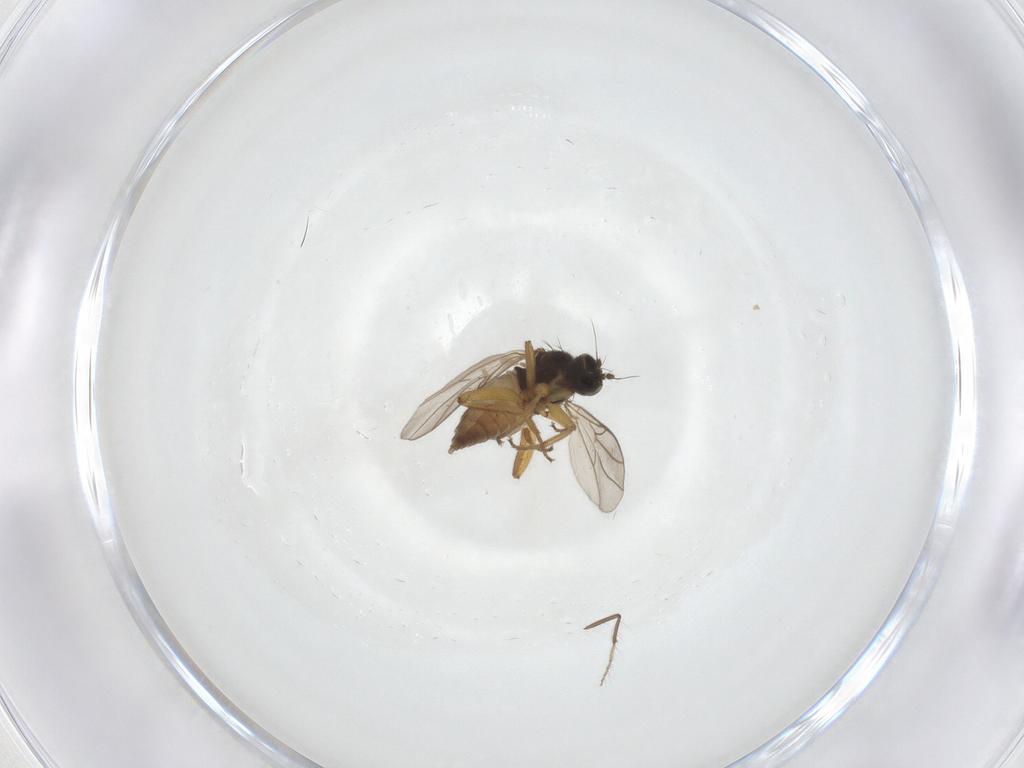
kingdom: Animalia
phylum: Arthropoda
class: Insecta
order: Diptera
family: Hybotidae
